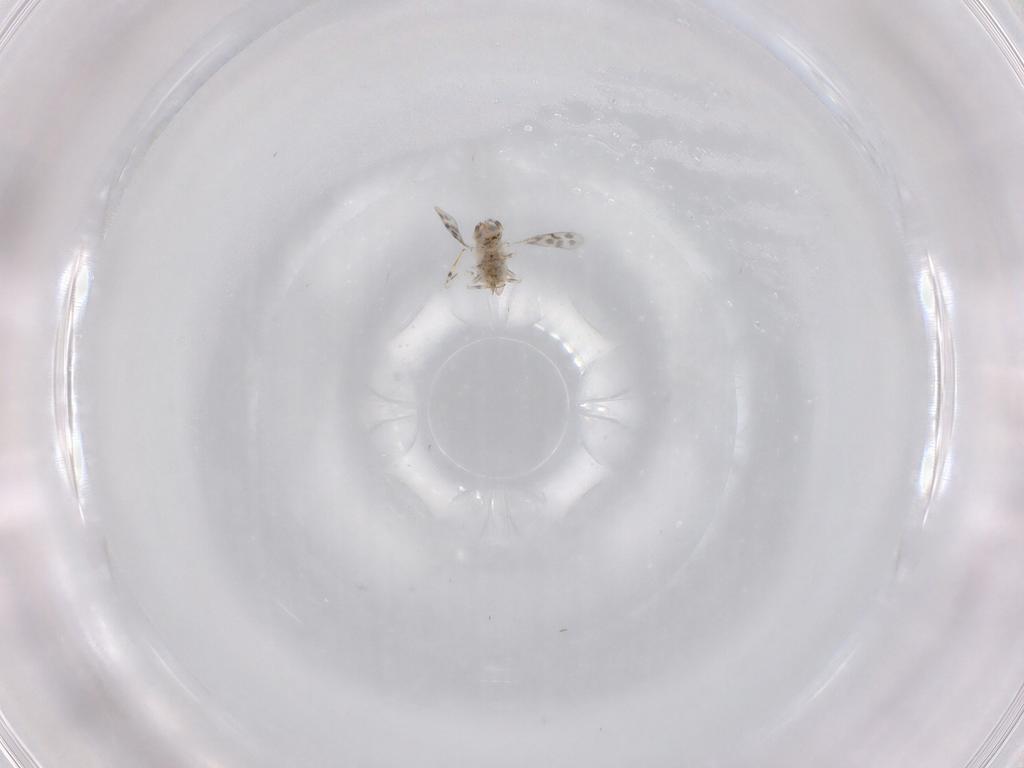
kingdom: Animalia
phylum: Arthropoda
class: Insecta
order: Hymenoptera
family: Aphelinidae
